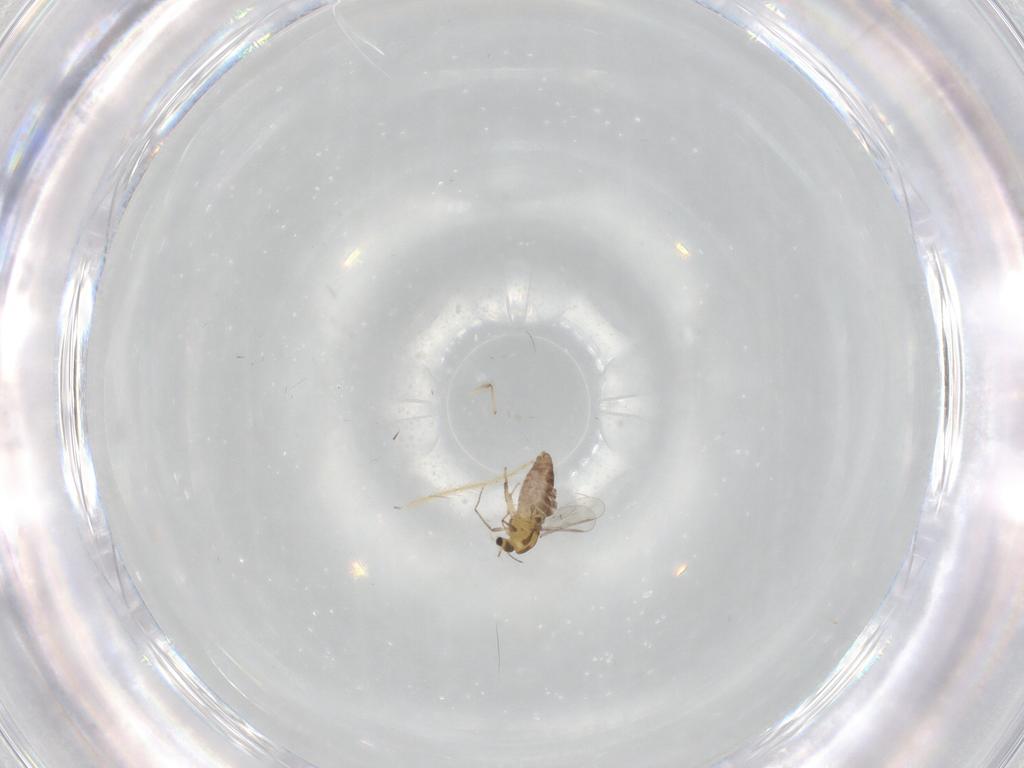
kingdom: Animalia
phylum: Arthropoda
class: Insecta
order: Diptera
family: Chironomidae
